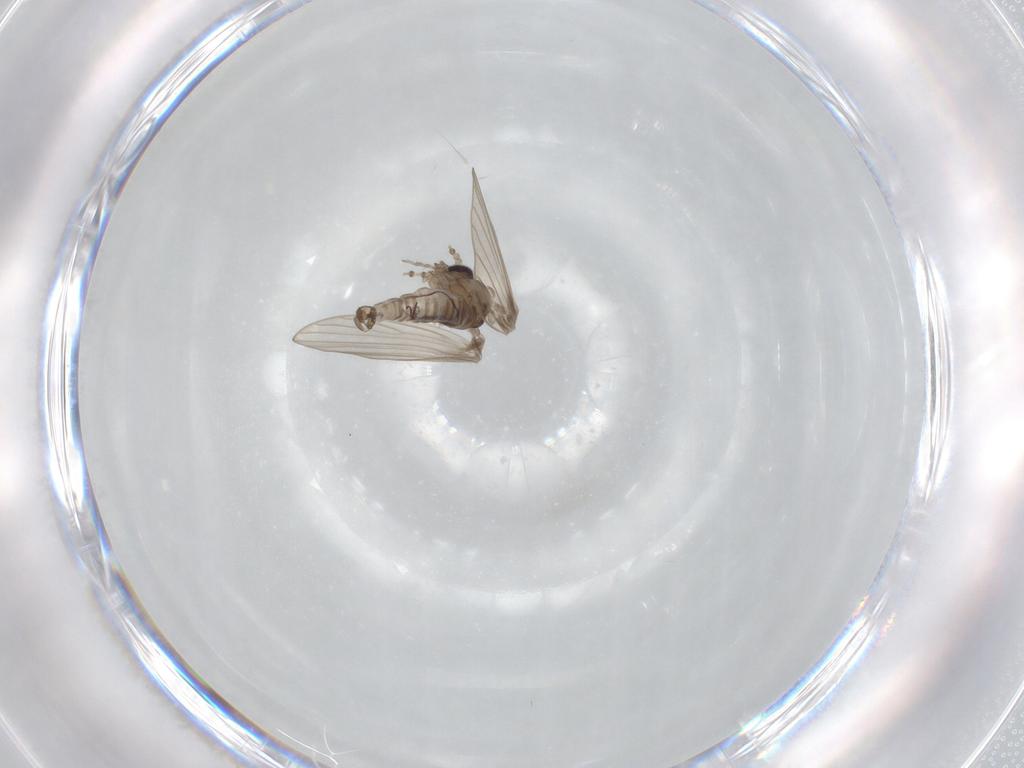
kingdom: Animalia
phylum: Arthropoda
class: Insecta
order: Diptera
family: Psychodidae
